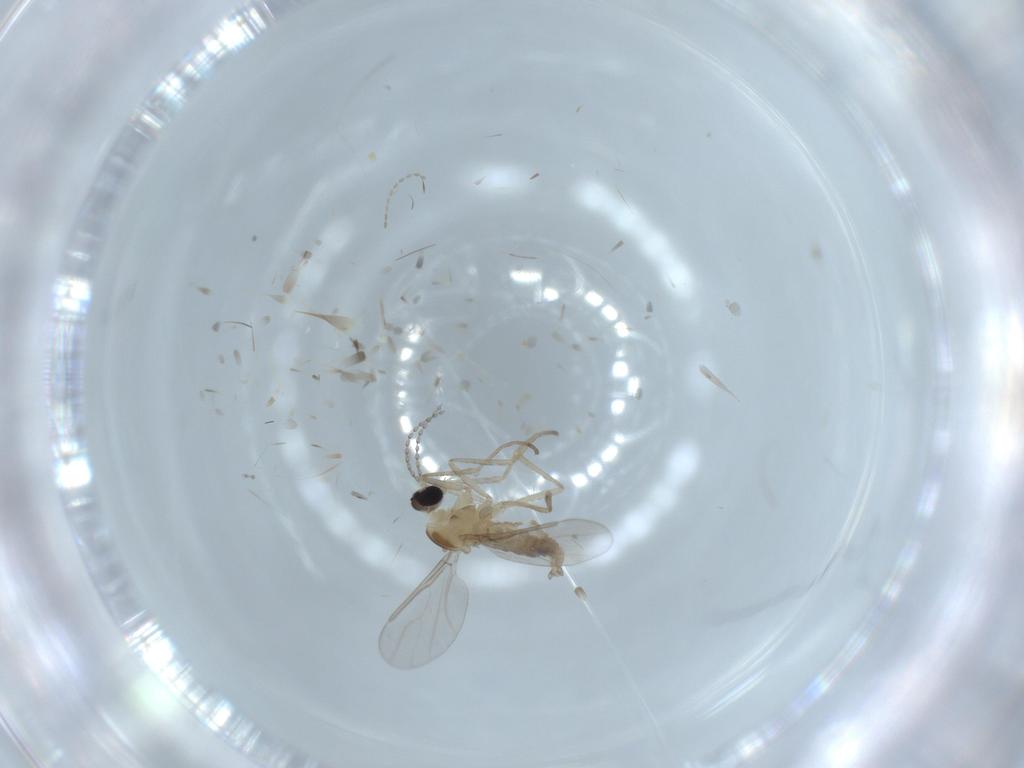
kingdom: Animalia
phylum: Arthropoda
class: Insecta
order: Diptera
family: Cecidomyiidae
